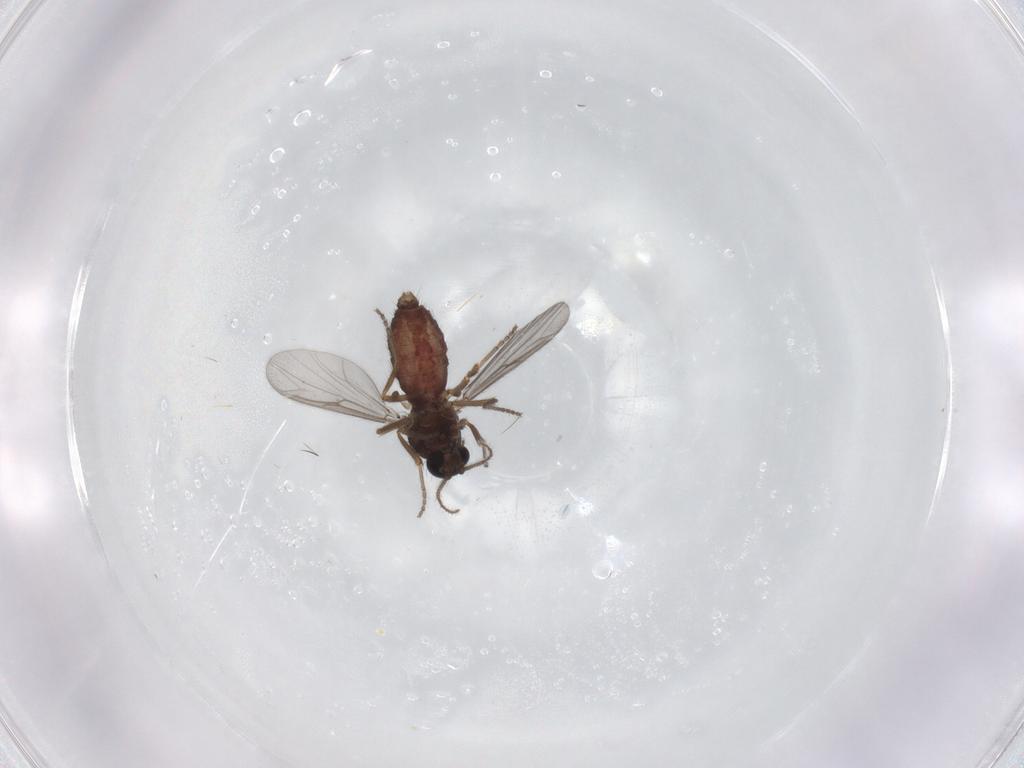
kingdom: Animalia
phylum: Arthropoda
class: Insecta
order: Diptera
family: Ceratopogonidae
